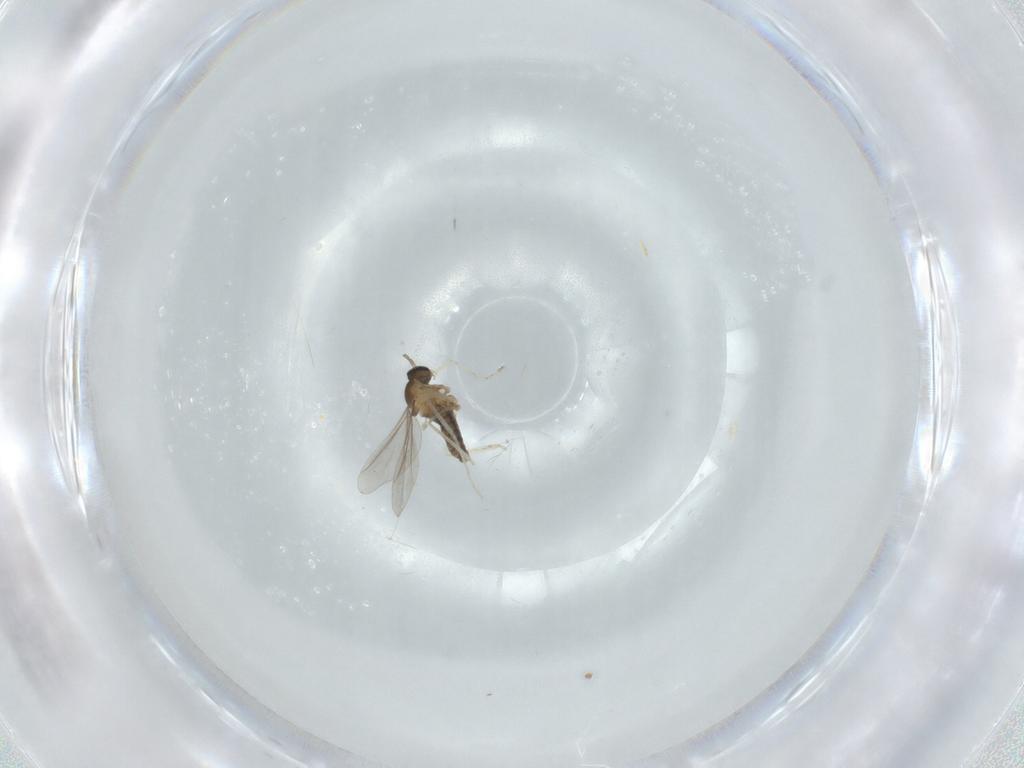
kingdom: Animalia
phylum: Arthropoda
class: Insecta
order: Diptera
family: Cecidomyiidae
